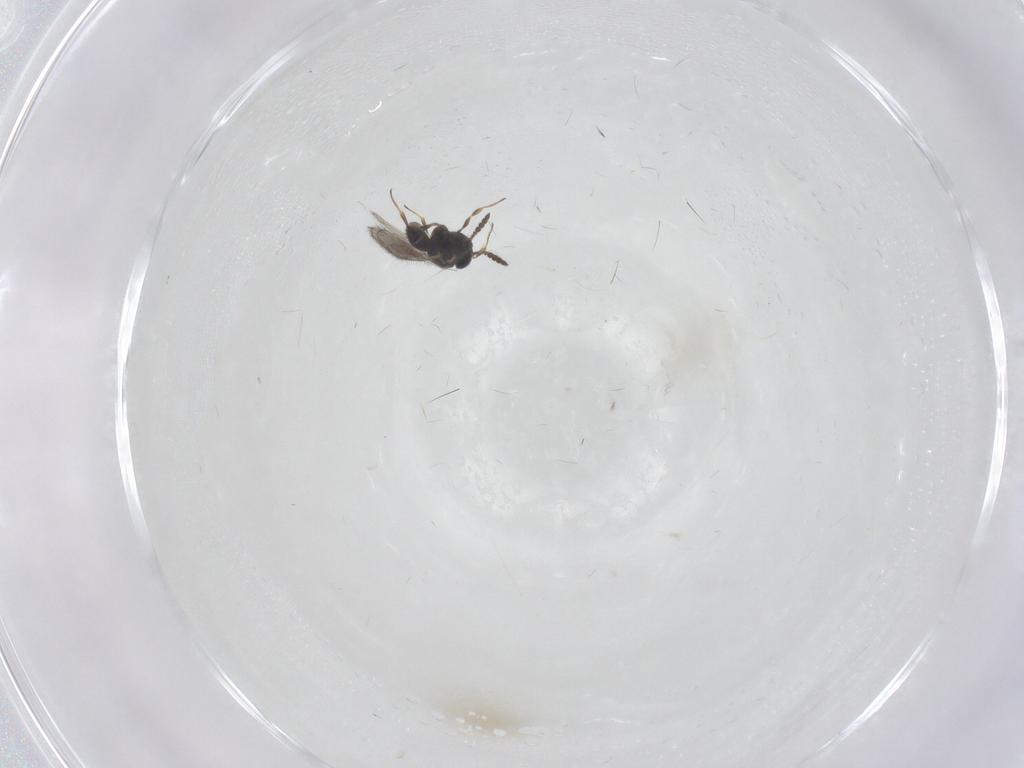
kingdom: Animalia
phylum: Arthropoda
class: Insecta
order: Hymenoptera
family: Scelionidae
